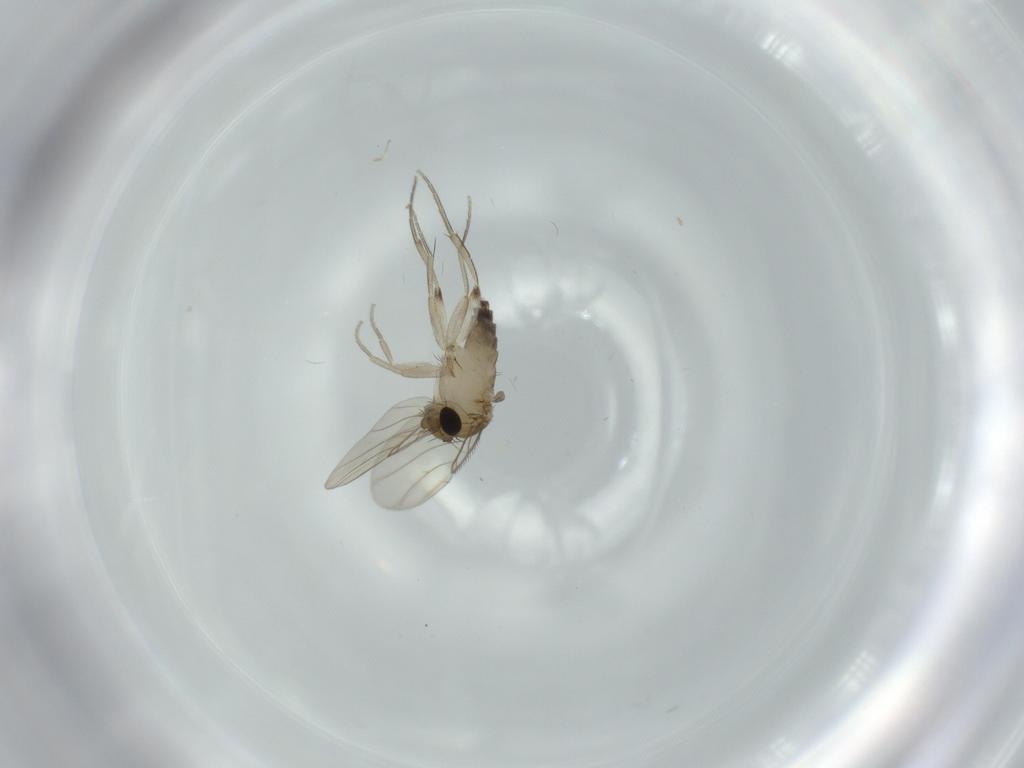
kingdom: Animalia
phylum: Arthropoda
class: Insecta
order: Diptera
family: Phoridae
